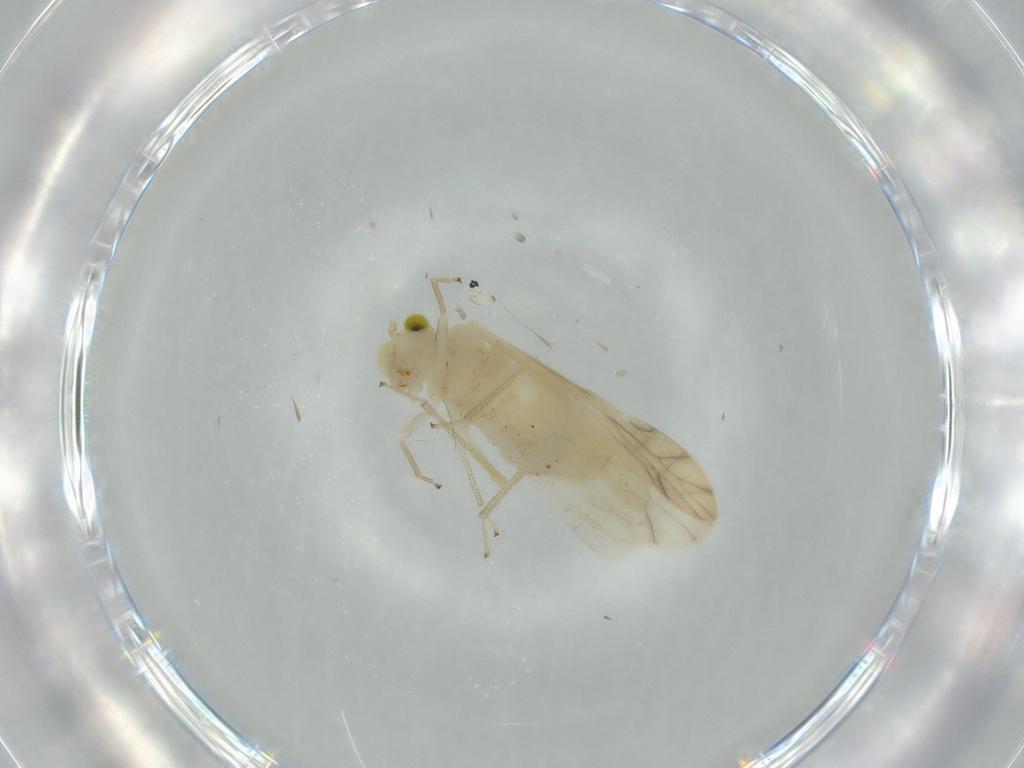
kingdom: Animalia
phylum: Arthropoda
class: Insecta
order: Psocodea
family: Caeciliusidae
